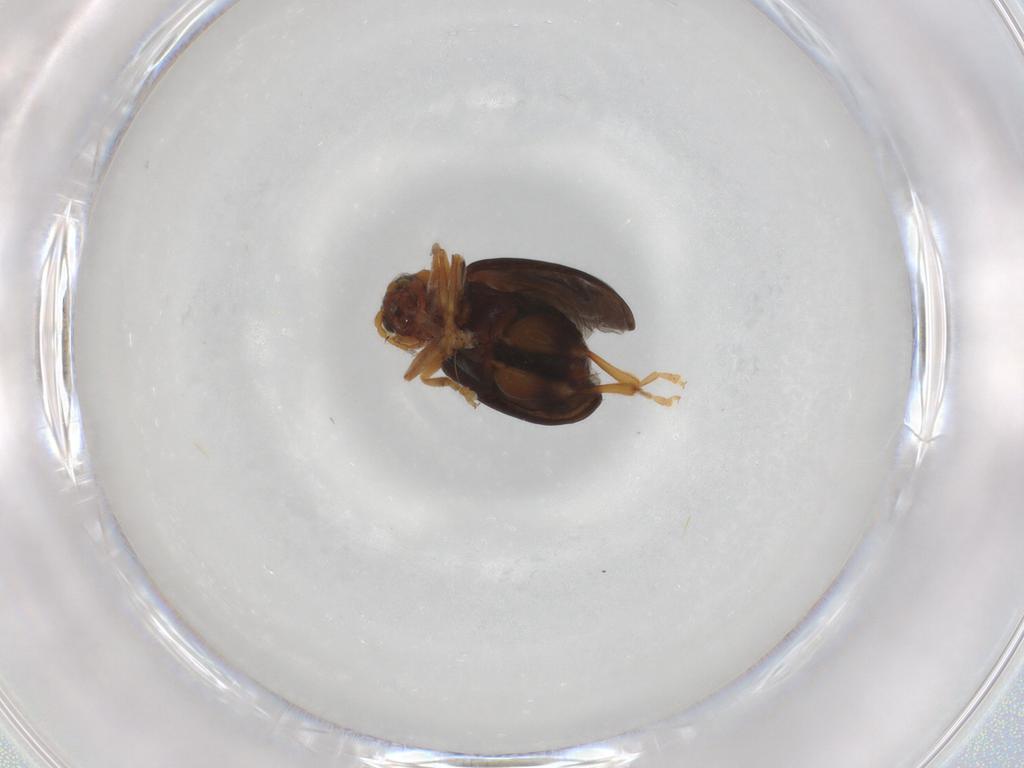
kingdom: Animalia
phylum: Arthropoda
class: Insecta
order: Coleoptera
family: Chrysomelidae
